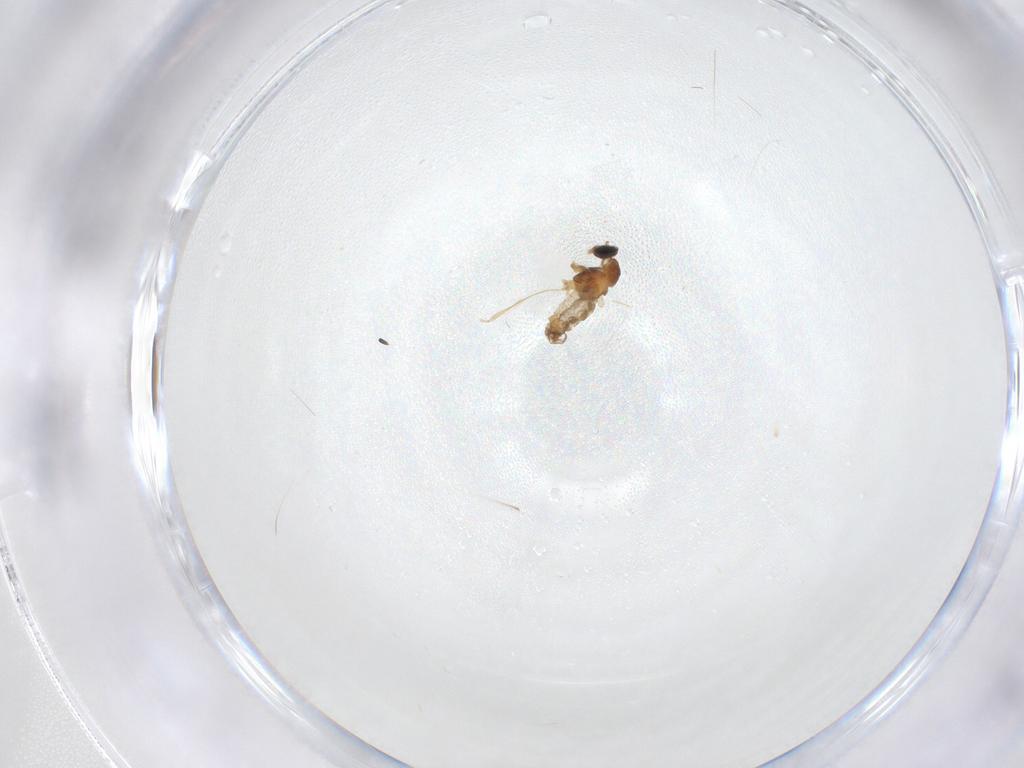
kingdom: Animalia
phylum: Arthropoda
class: Insecta
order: Diptera
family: Cecidomyiidae
